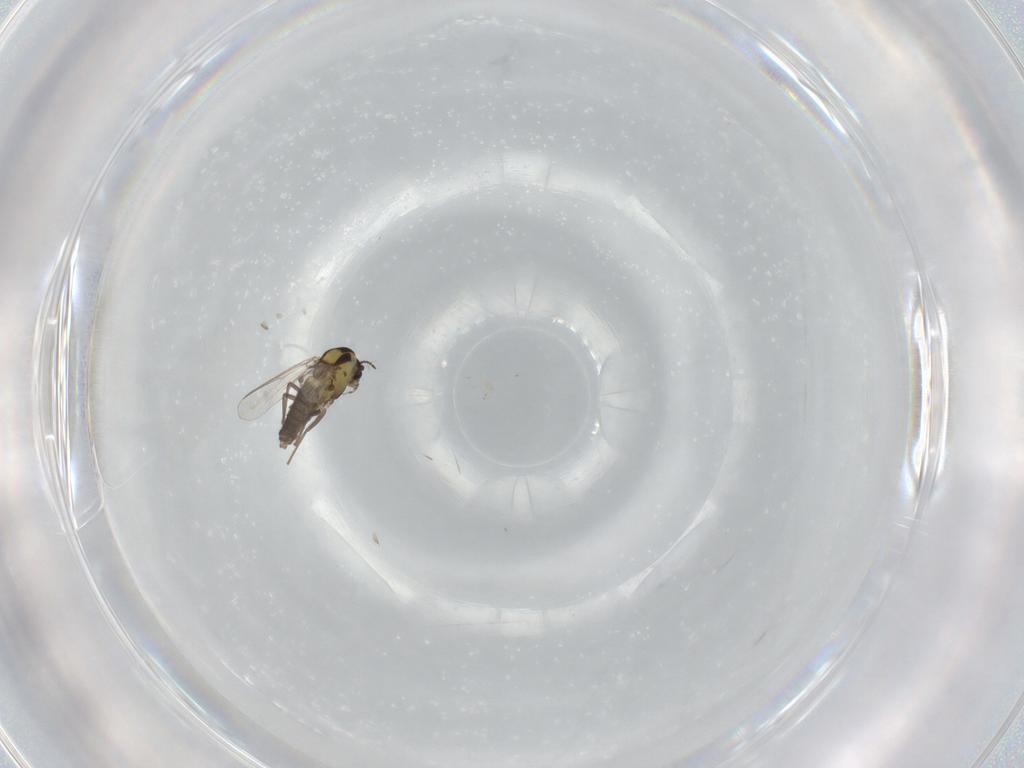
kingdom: Animalia
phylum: Arthropoda
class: Insecta
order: Diptera
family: Chironomidae
